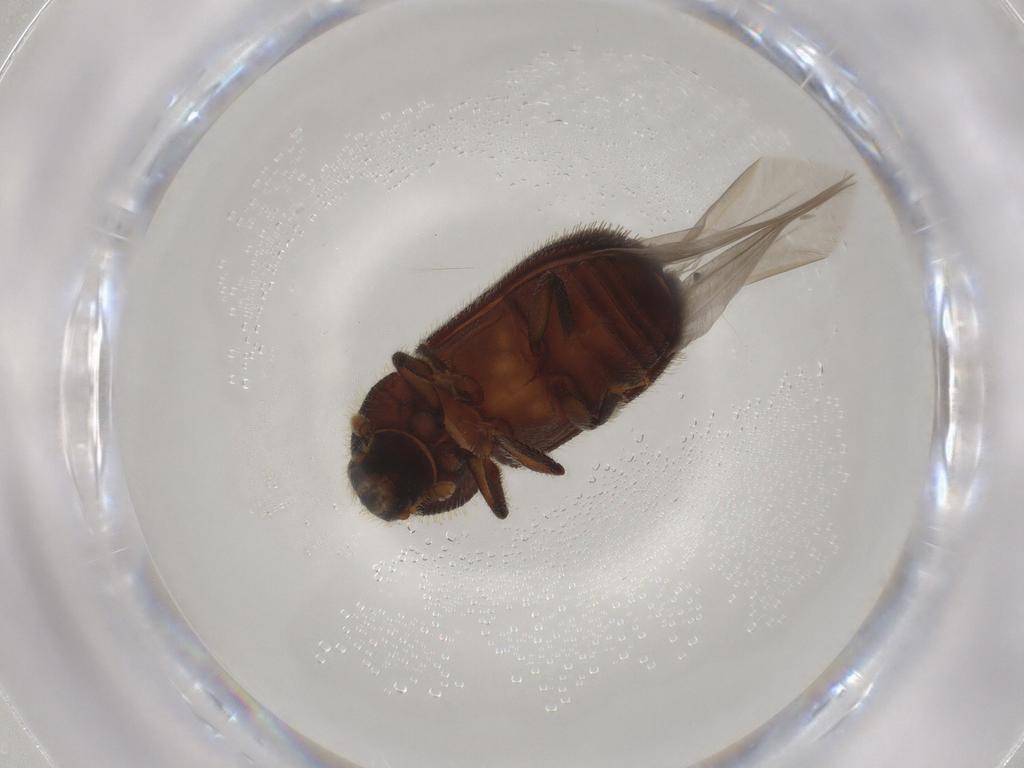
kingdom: Animalia
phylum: Arthropoda
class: Insecta
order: Coleoptera
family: Curculionidae
